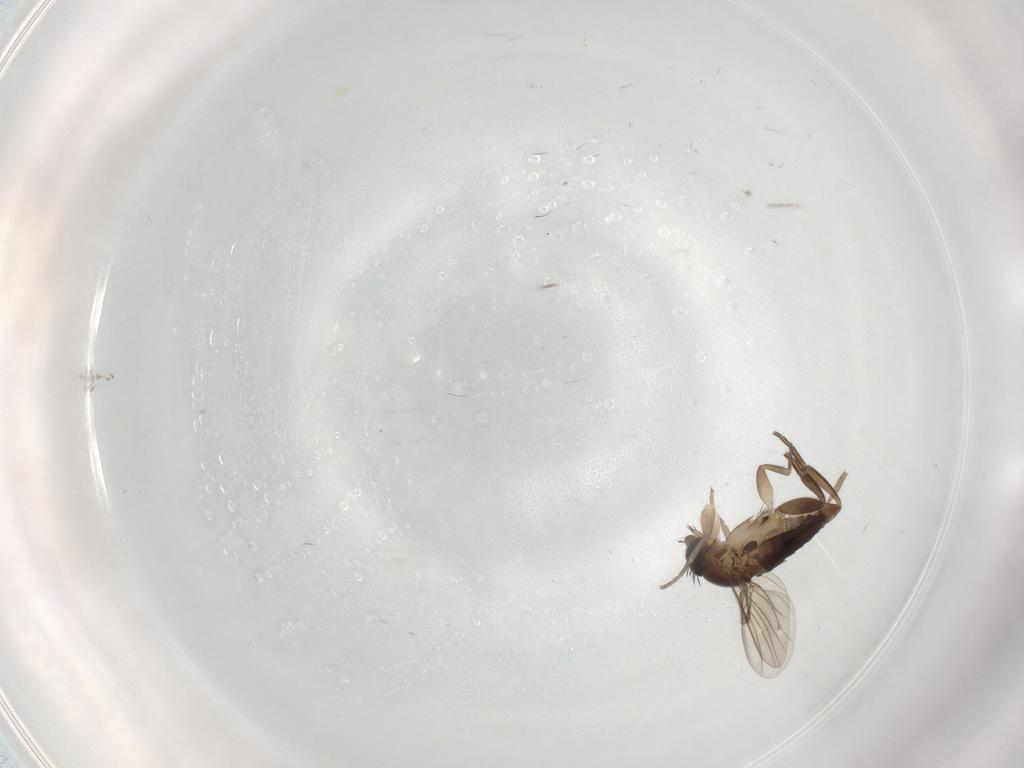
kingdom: Animalia
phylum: Arthropoda
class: Insecta
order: Diptera
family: Phoridae
